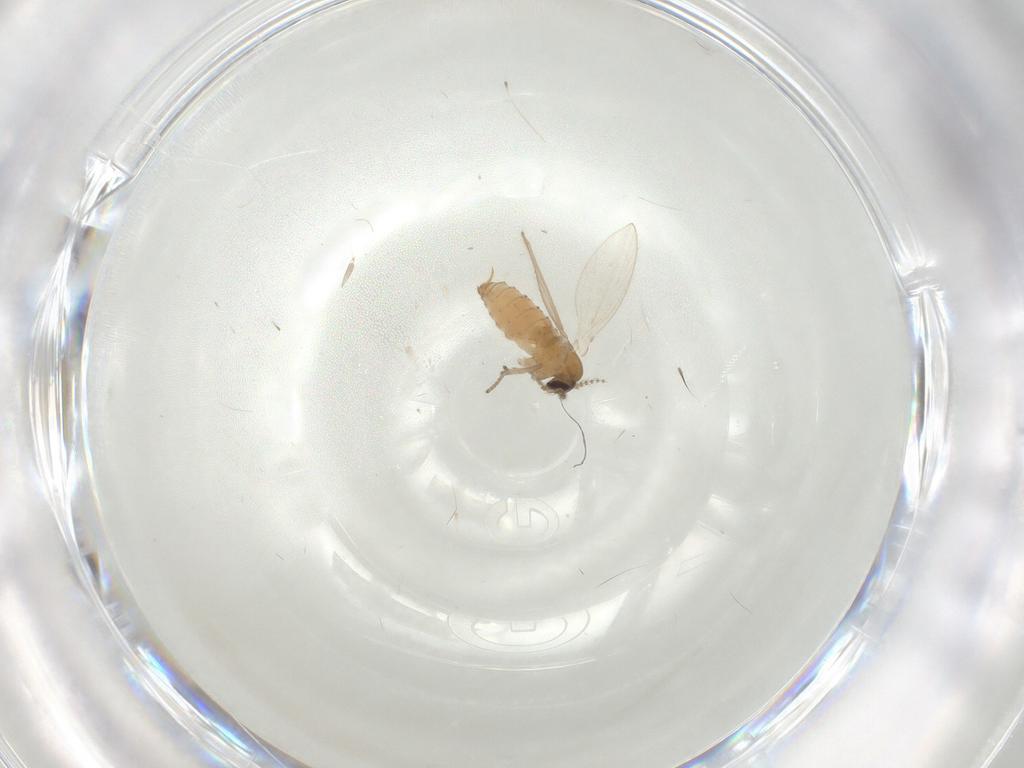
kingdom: Animalia
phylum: Arthropoda
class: Insecta
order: Diptera
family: Psychodidae
